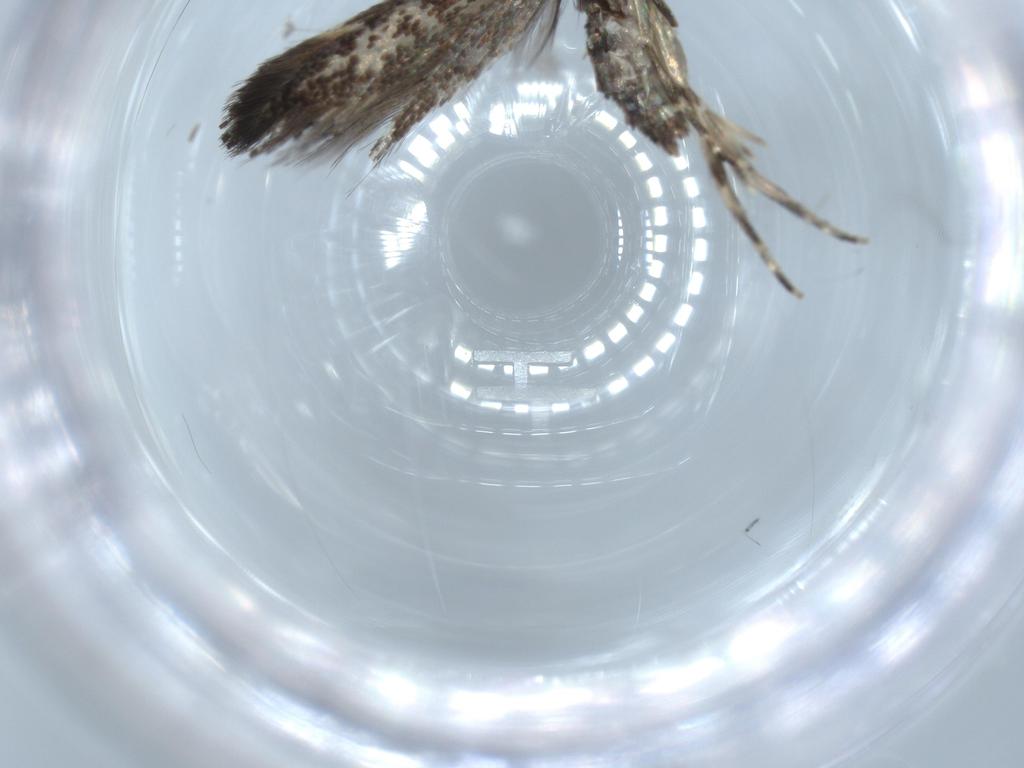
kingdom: Animalia
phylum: Arthropoda
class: Insecta
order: Lepidoptera
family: Gelechiidae
